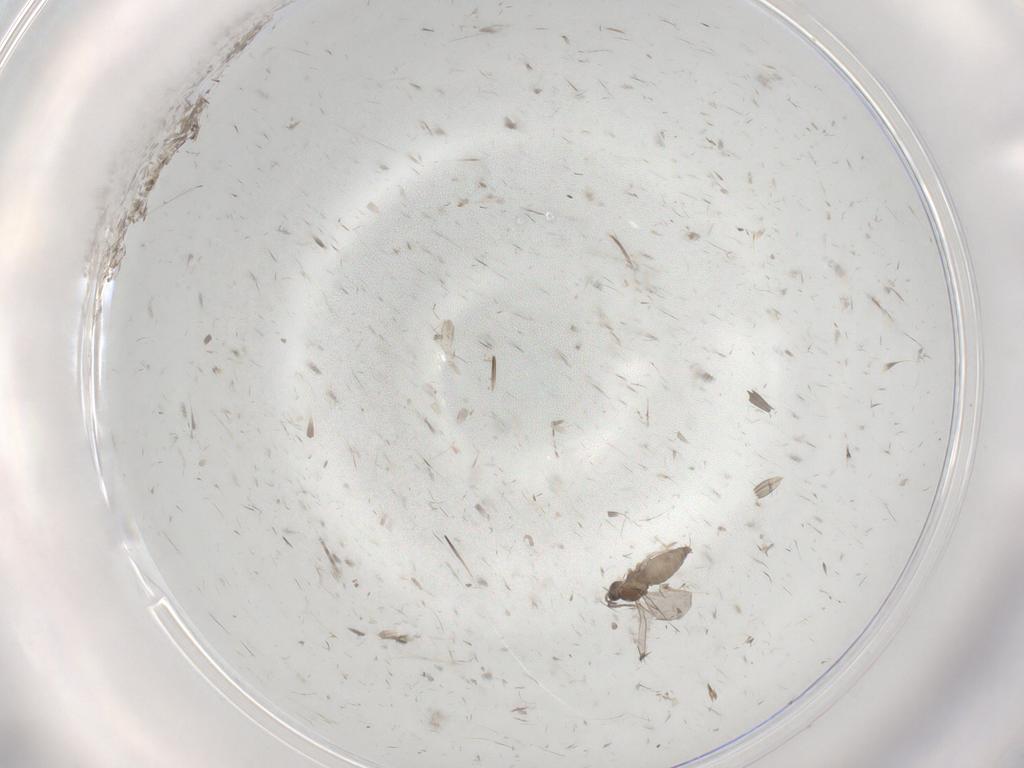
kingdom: Animalia
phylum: Arthropoda
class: Insecta
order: Diptera
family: Cecidomyiidae
